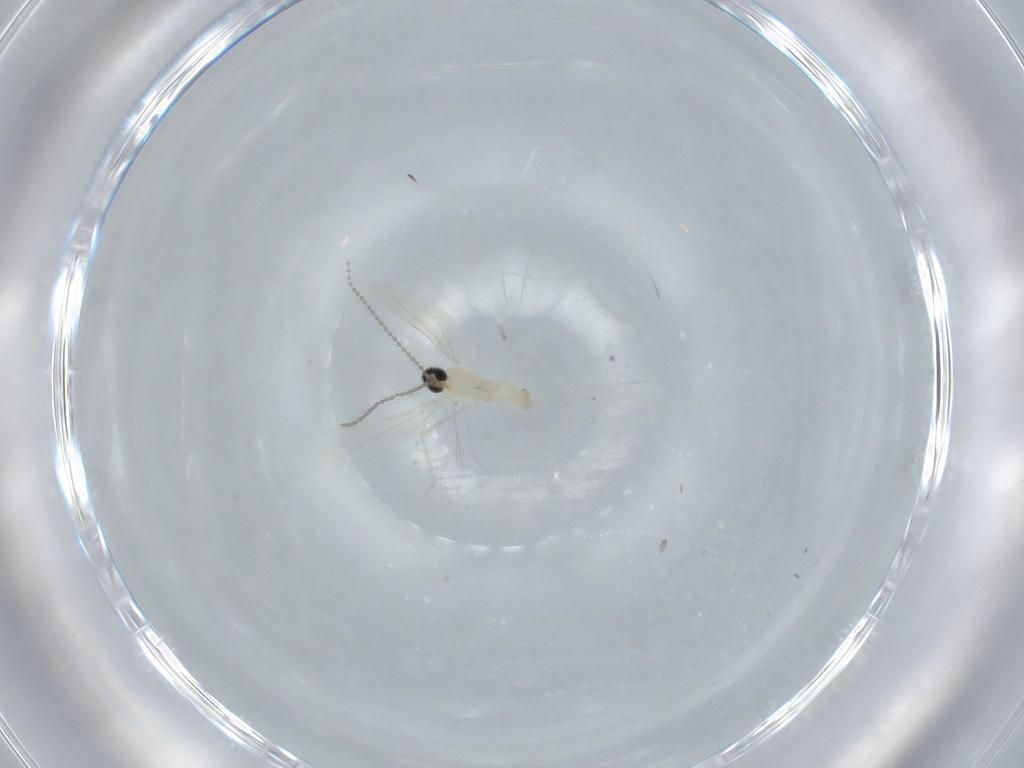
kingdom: Animalia
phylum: Arthropoda
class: Insecta
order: Diptera
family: Cecidomyiidae
